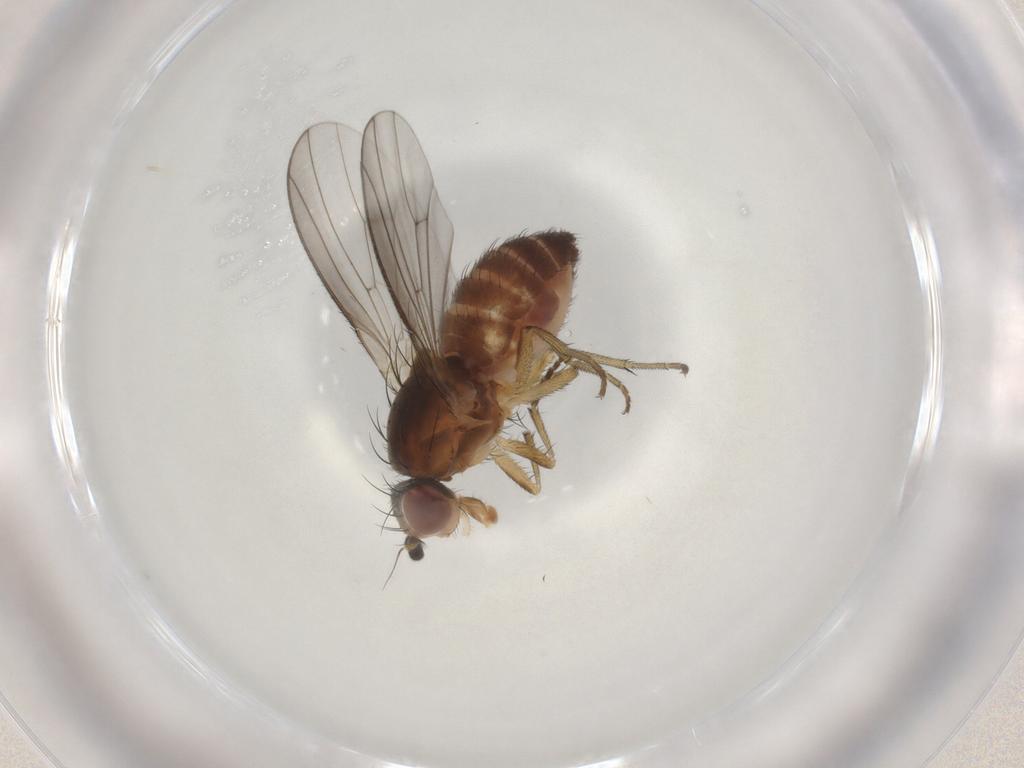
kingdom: Animalia
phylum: Arthropoda
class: Insecta
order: Diptera
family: Heleomyzidae
